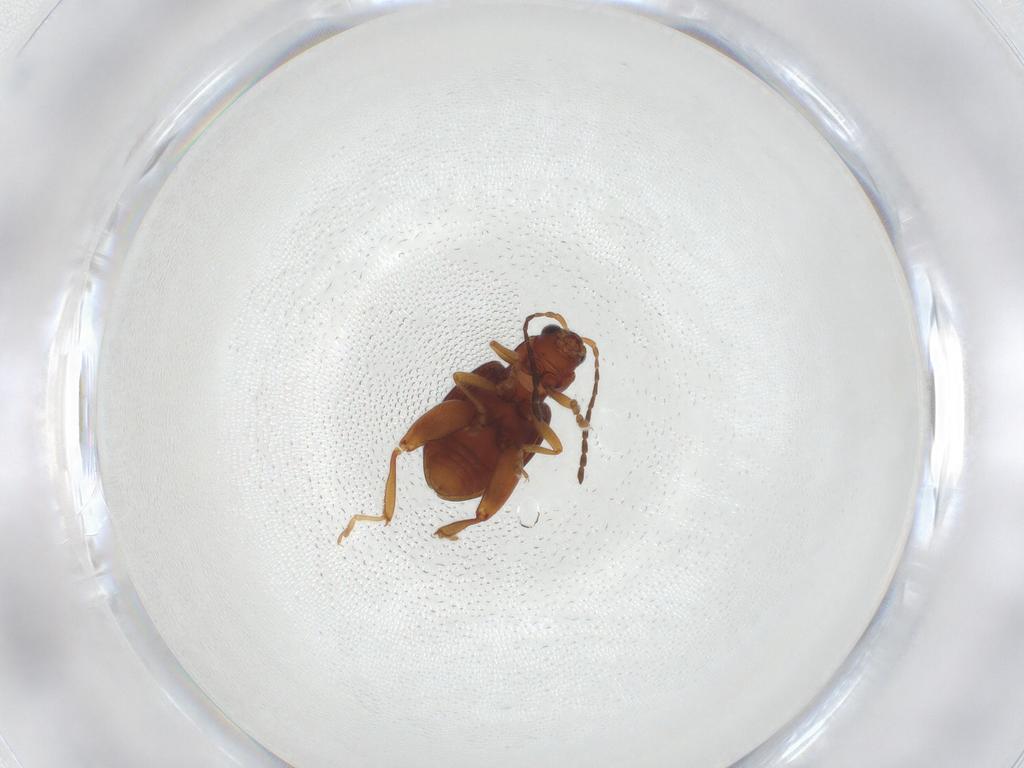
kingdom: Animalia
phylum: Arthropoda
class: Insecta
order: Coleoptera
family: Chrysomelidae
